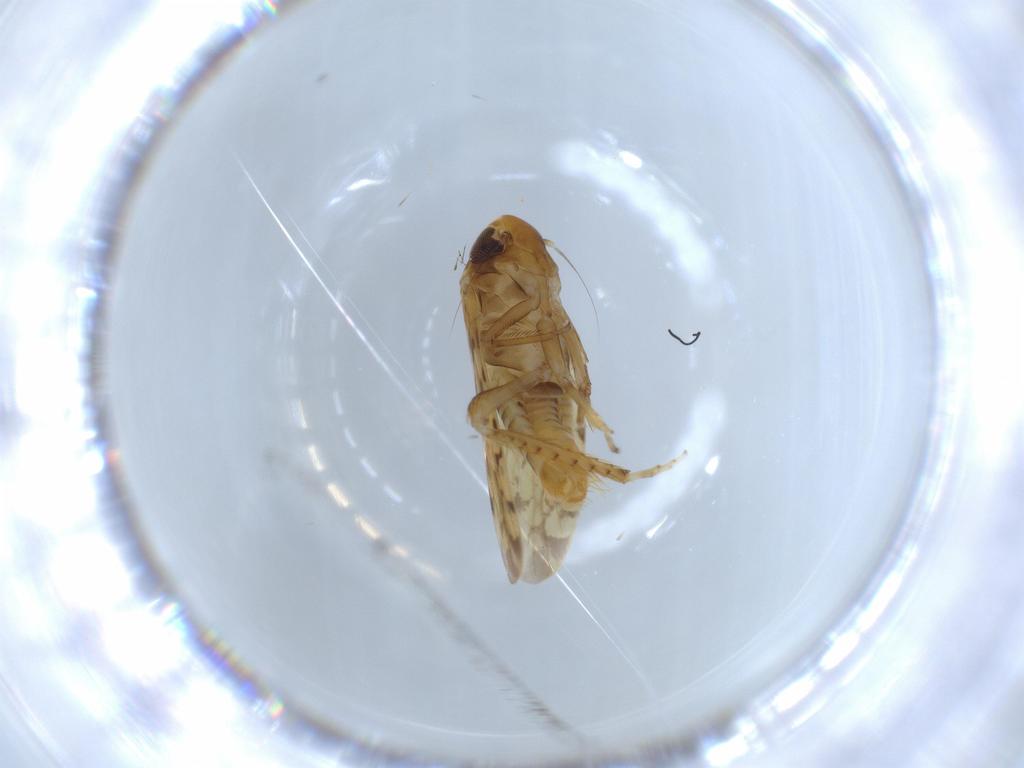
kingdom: Animalia
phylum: Arthropoda
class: Insecta
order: Hemiptera
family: Cicadellidae
